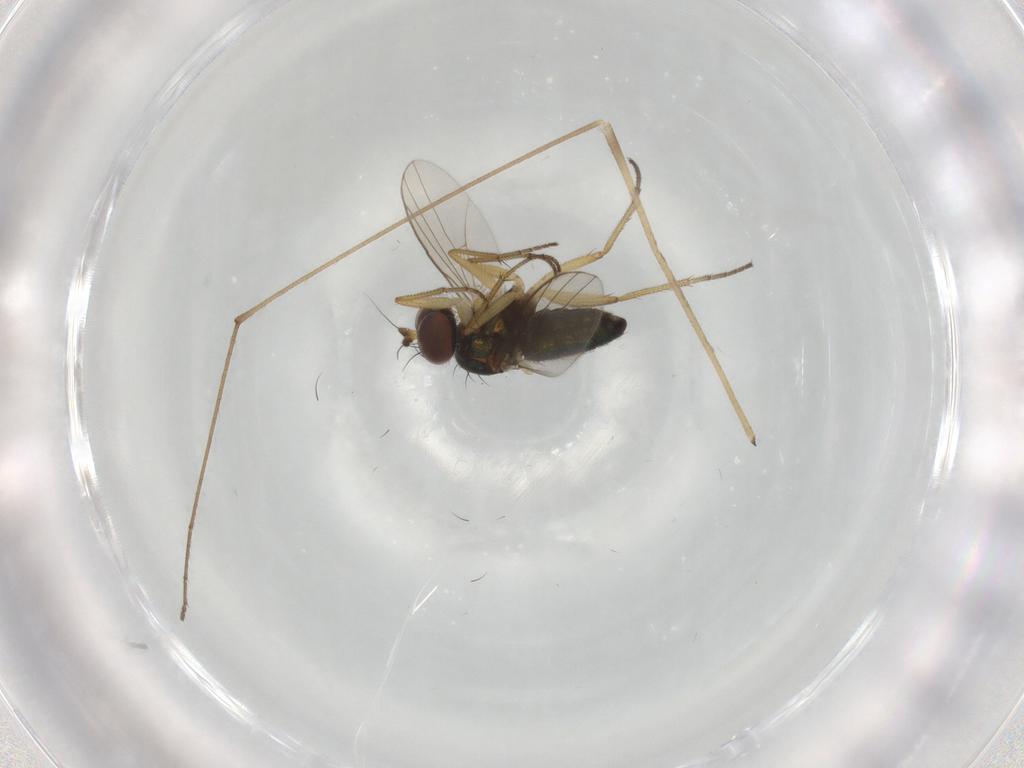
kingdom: Animalia
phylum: Arthropoda
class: Insecta
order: Diptera
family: Limoniidae
